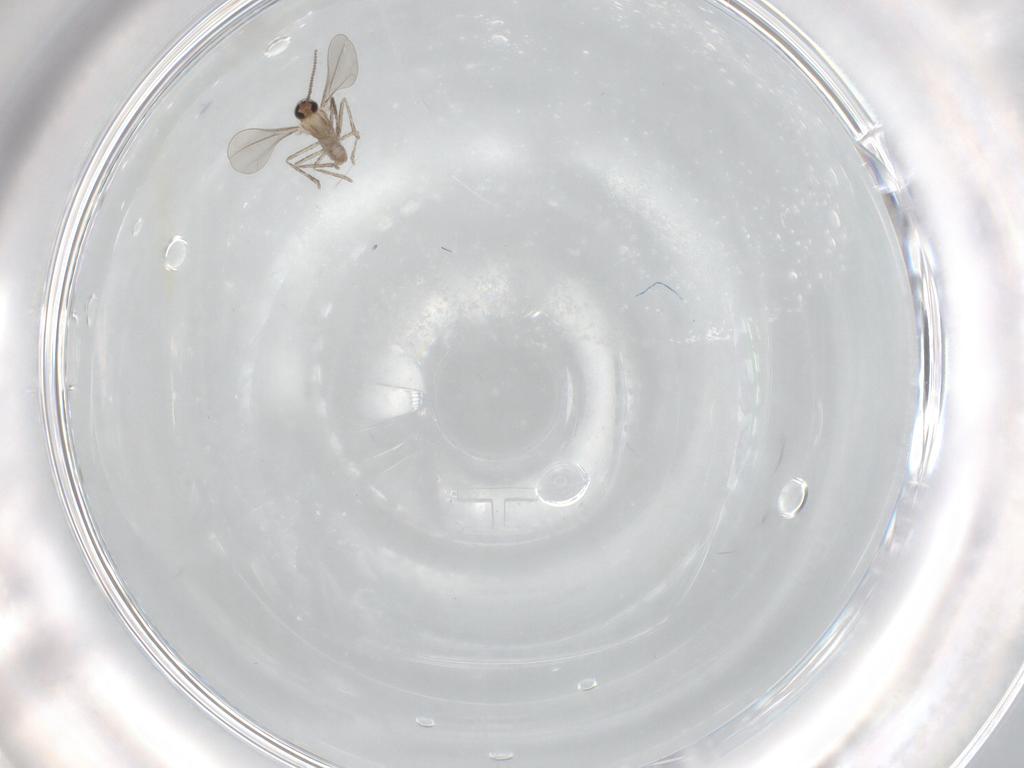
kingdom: Animalia
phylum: Arthropoda
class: Insecta
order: Diptera
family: Cecidomyiidae
